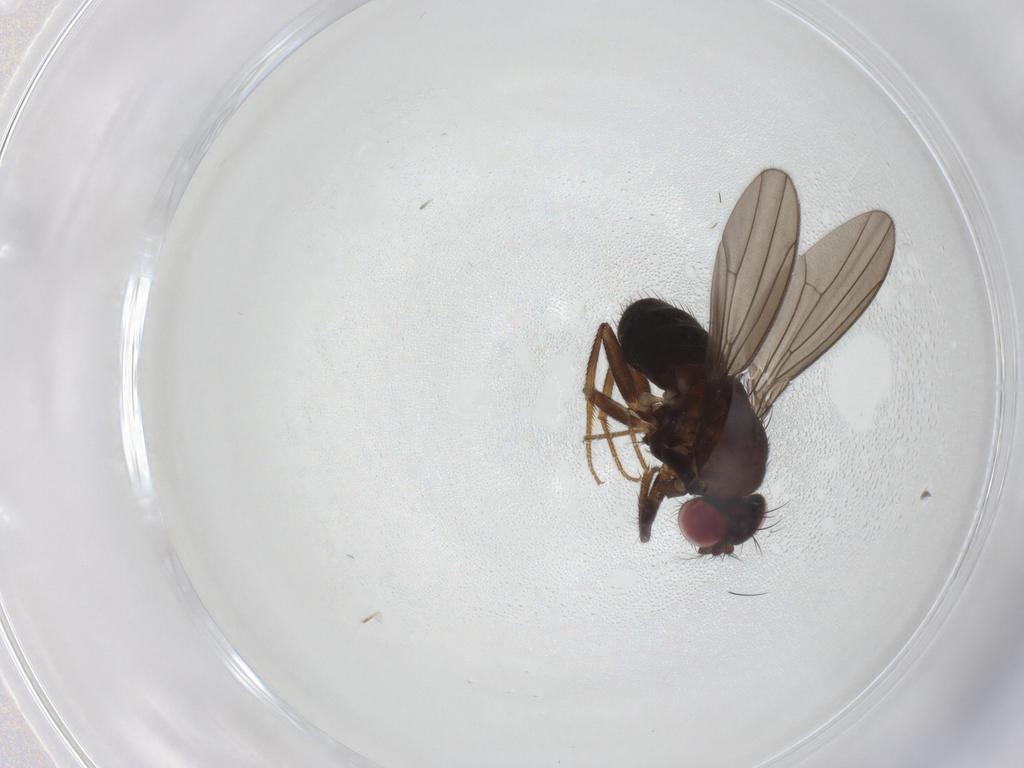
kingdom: Animalia
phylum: Arthropoda
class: Insecta
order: Diptera
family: Drosophilidae
